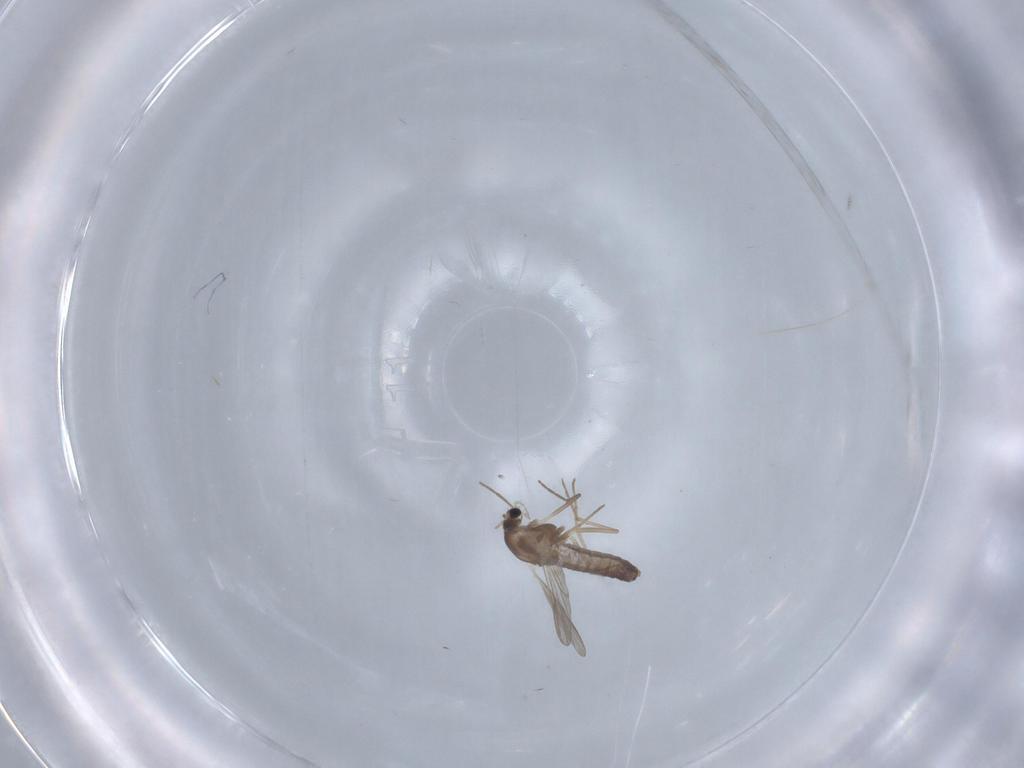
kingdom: Animalia
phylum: Arthropoda
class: Insecta
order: Diptera
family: Chironomidae
